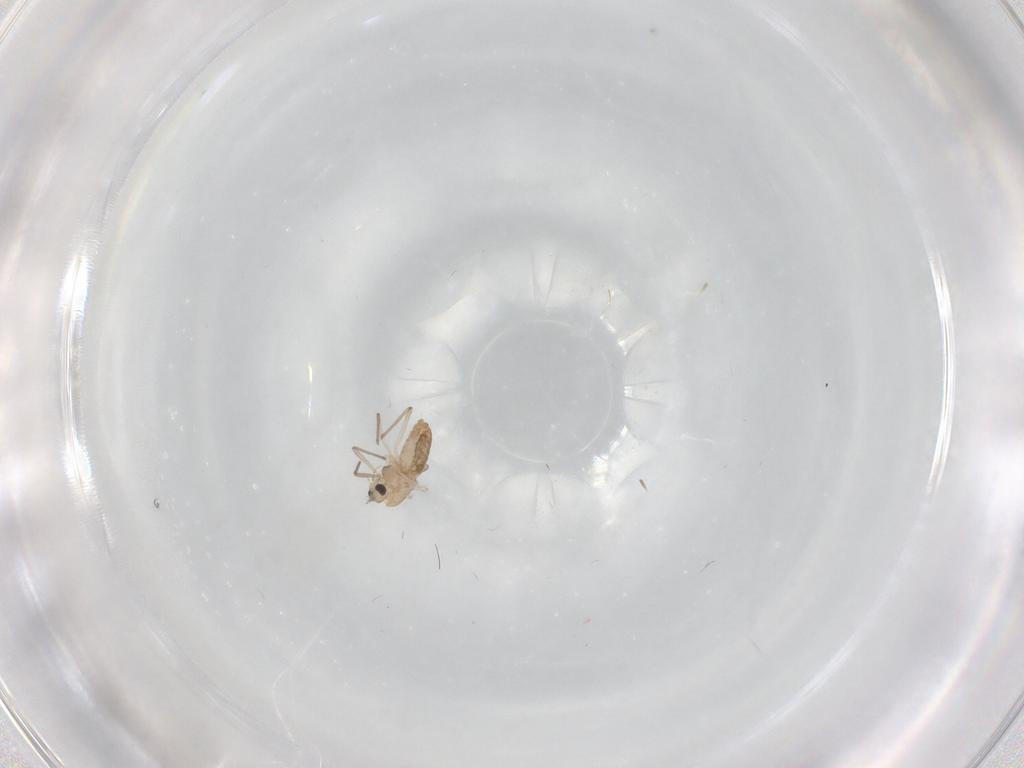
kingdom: Animalia
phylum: Arthropoda
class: Insecta
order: Diptera
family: Chironomidae
